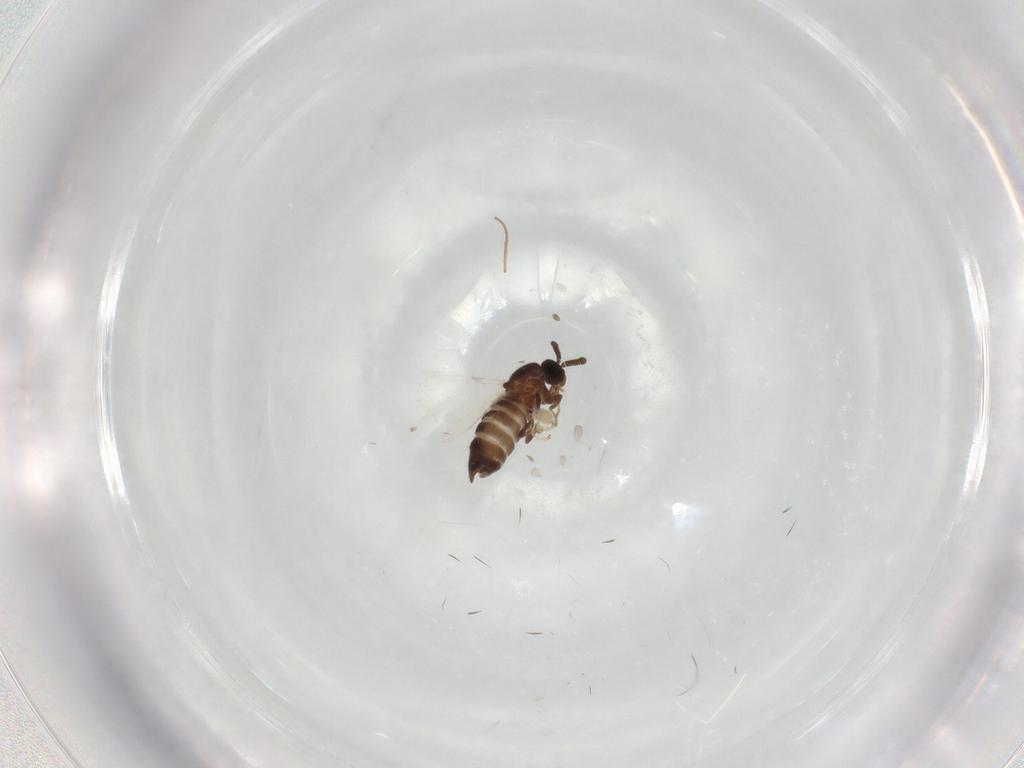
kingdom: Animalia
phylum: Arthropoda
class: Insecta
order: Diptera
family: Scatopsidae
